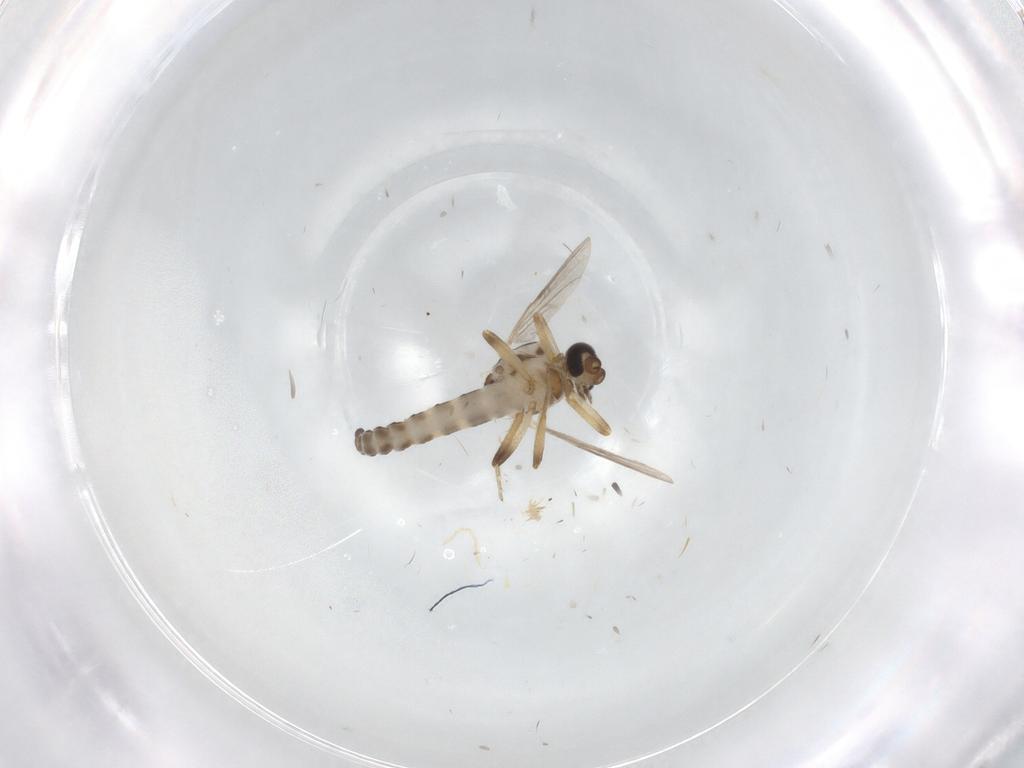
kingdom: Animalia
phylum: Arthropoda
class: Insecta
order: Diptera
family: Ceratopogonidae
